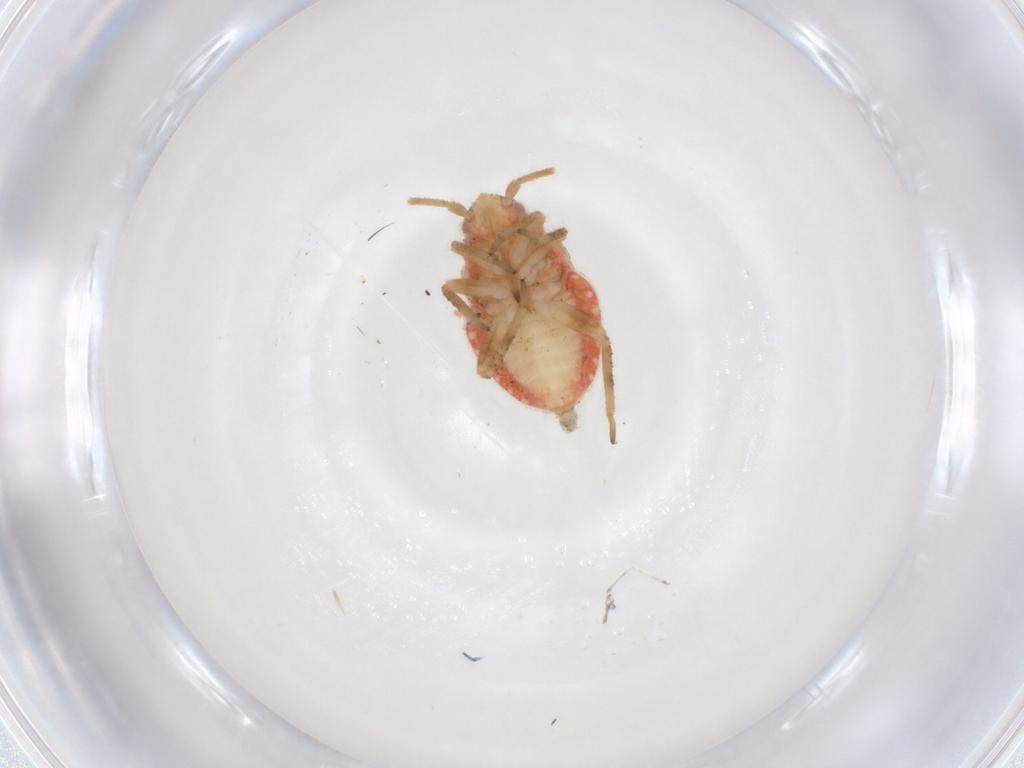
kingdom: Animalia
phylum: Arthropoda
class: Insecta
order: Hemiptera
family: Miridae
